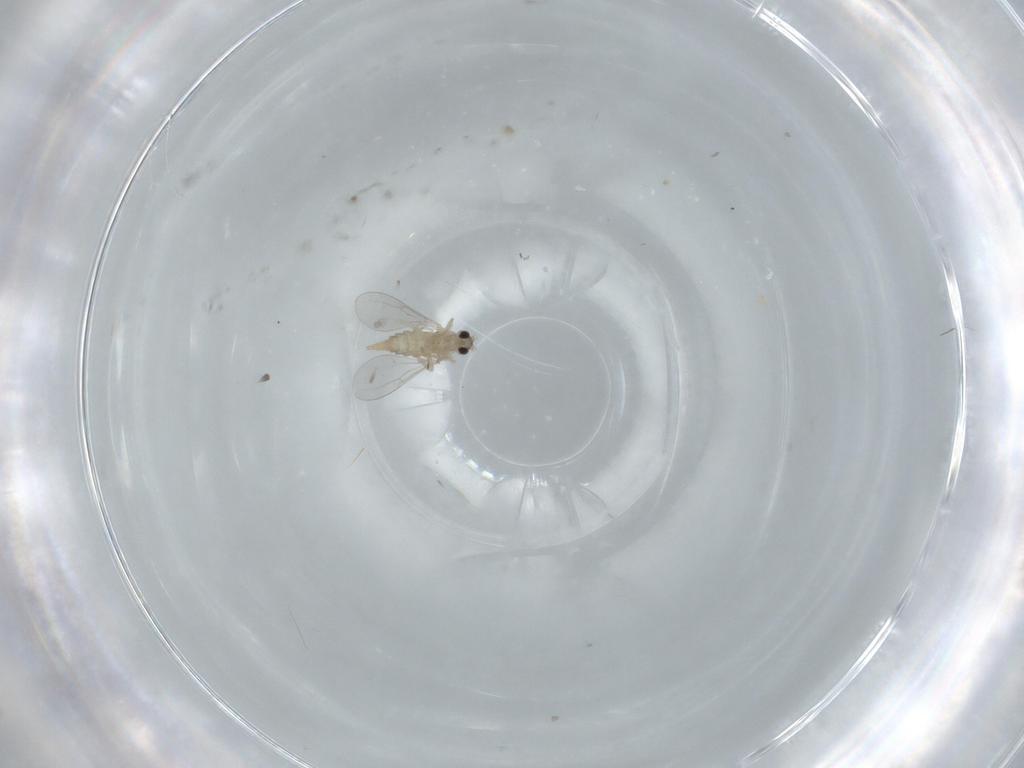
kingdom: Animalia
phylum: Arthropoda
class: Insecta
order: Diptera
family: Cecidomyiidae
